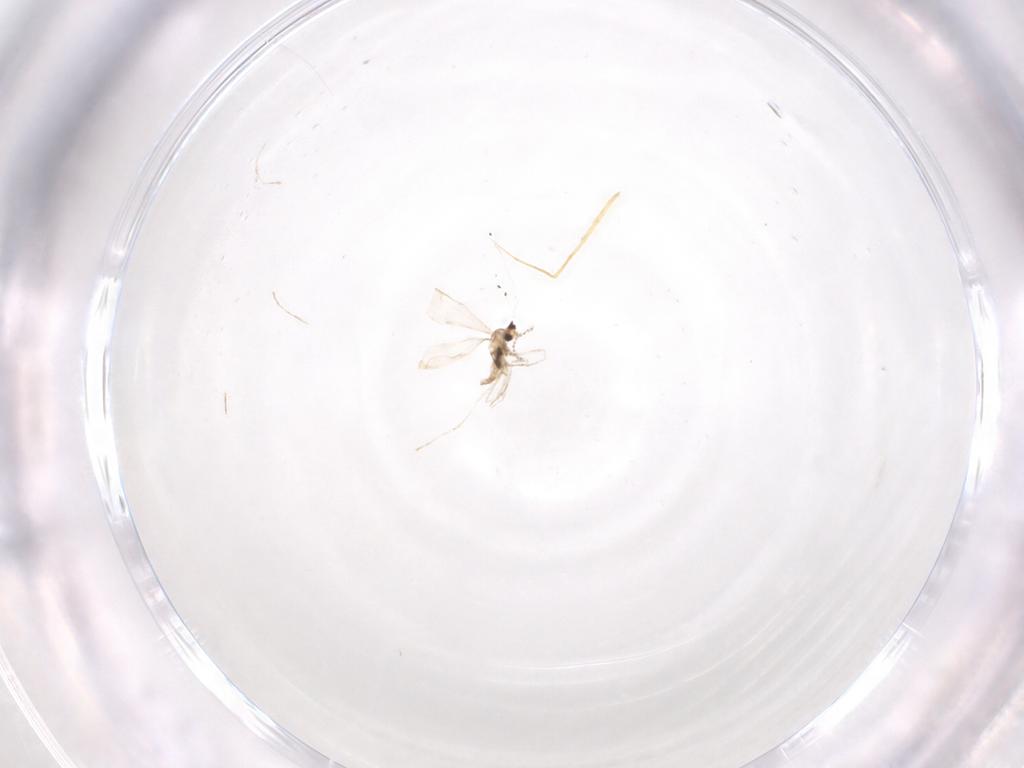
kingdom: Animalia
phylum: Arthropoda
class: Insecta
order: Diptera
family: Cecidomyiidae
